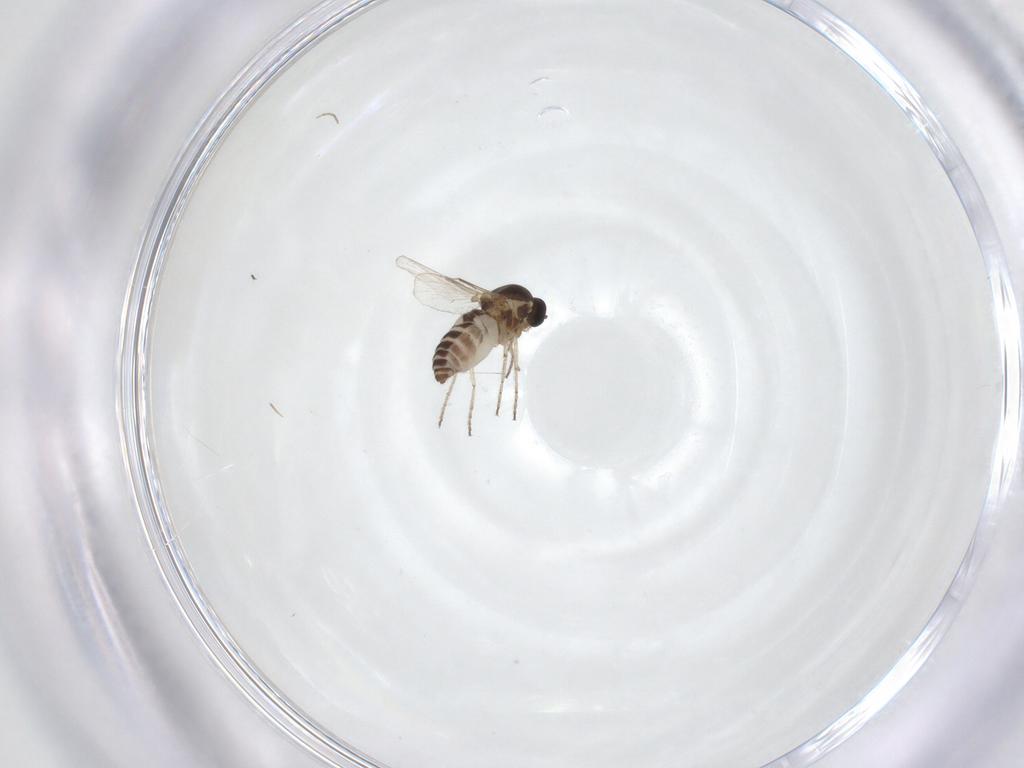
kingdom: Animalia
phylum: Arthropoda
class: Insecta
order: Diptera
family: Ceratopogonidae
